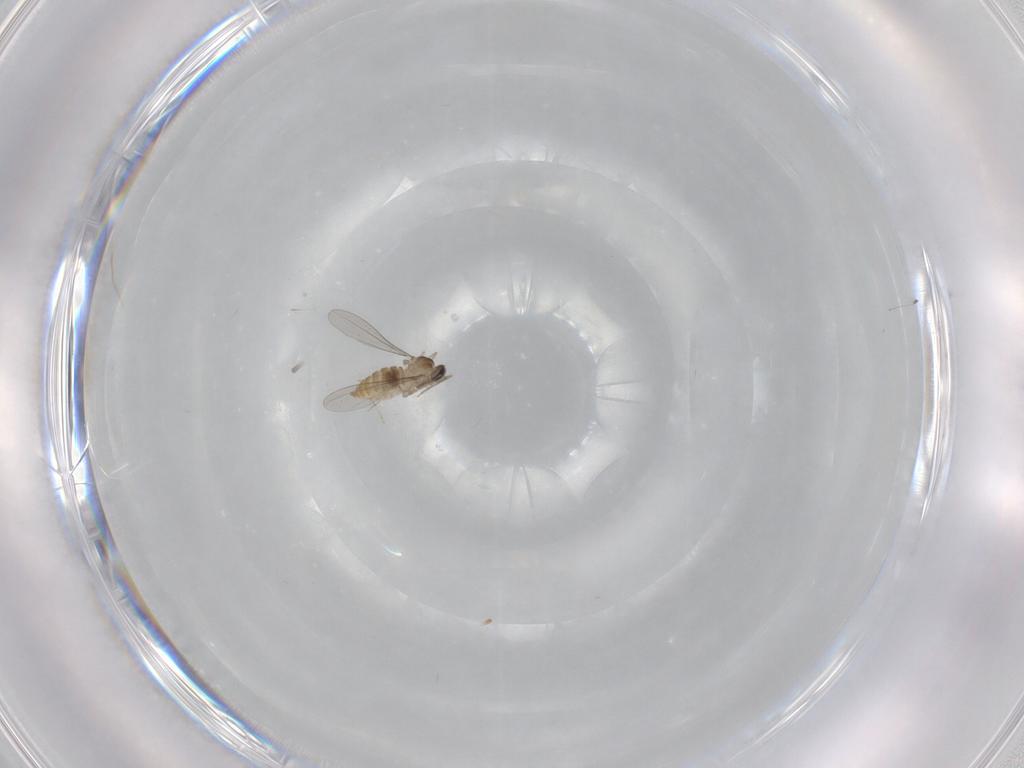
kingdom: Animalia
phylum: Arthropoda
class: Insecta
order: Diptera
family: Cecidomyiidae
